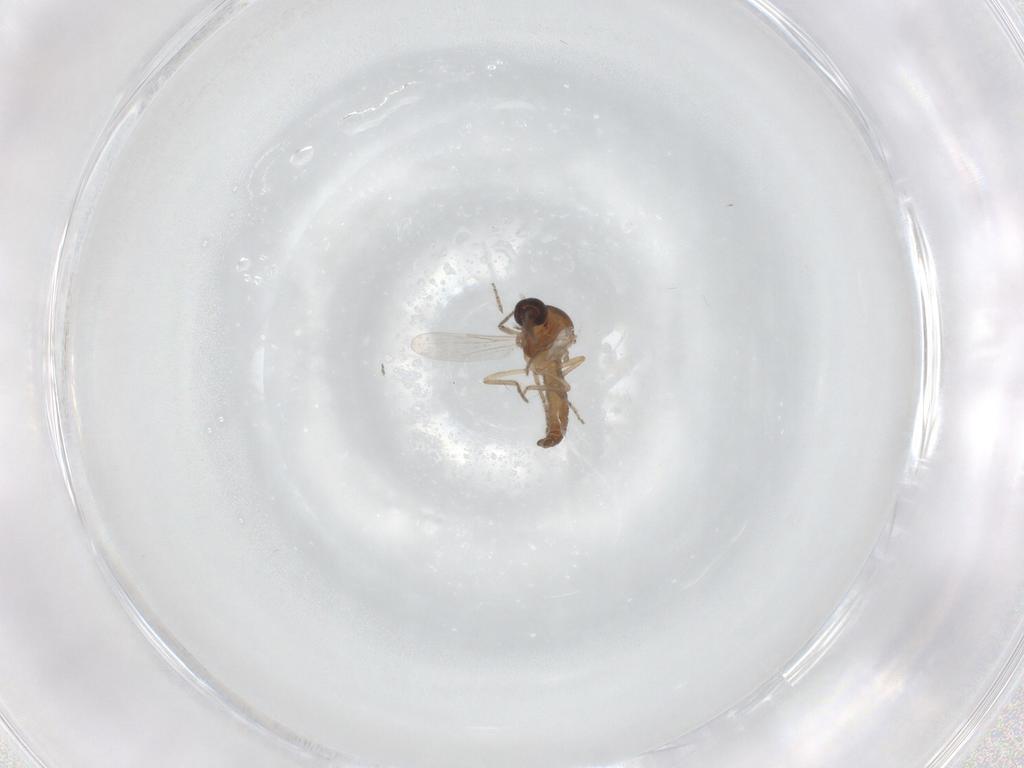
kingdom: Animalia
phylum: Arthropoda
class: Insecta
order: Diptera
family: Ceratopogonidae
